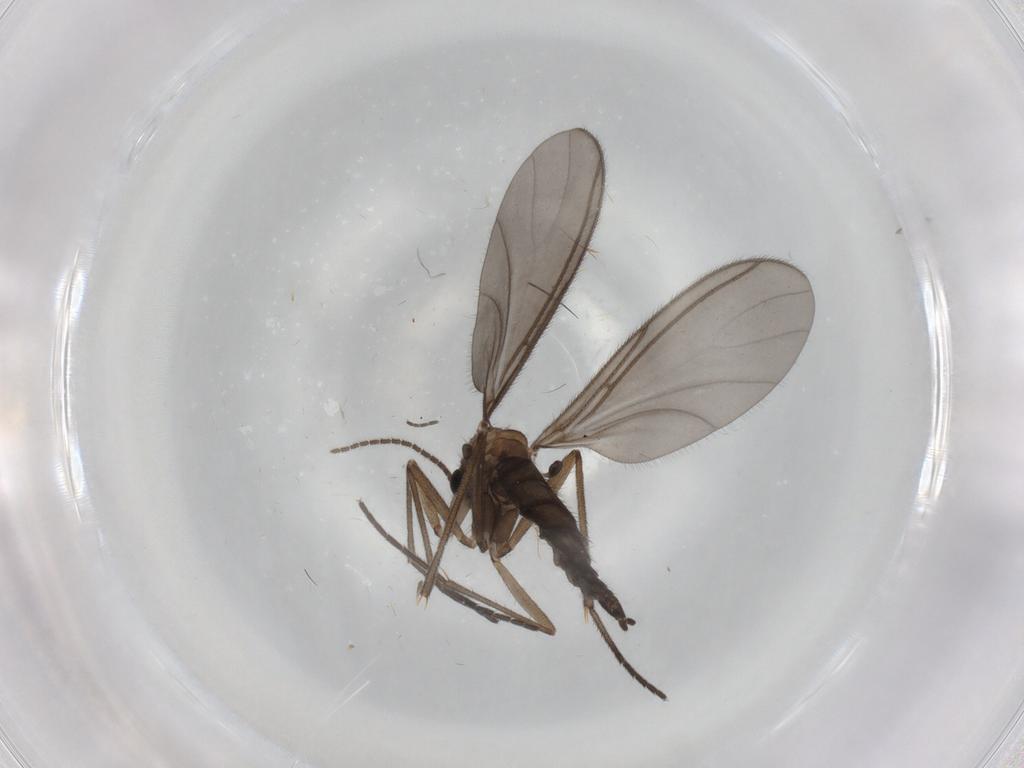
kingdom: Animalia
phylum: Arthropoda
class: Insecta
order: Diptera
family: Sciaridae
